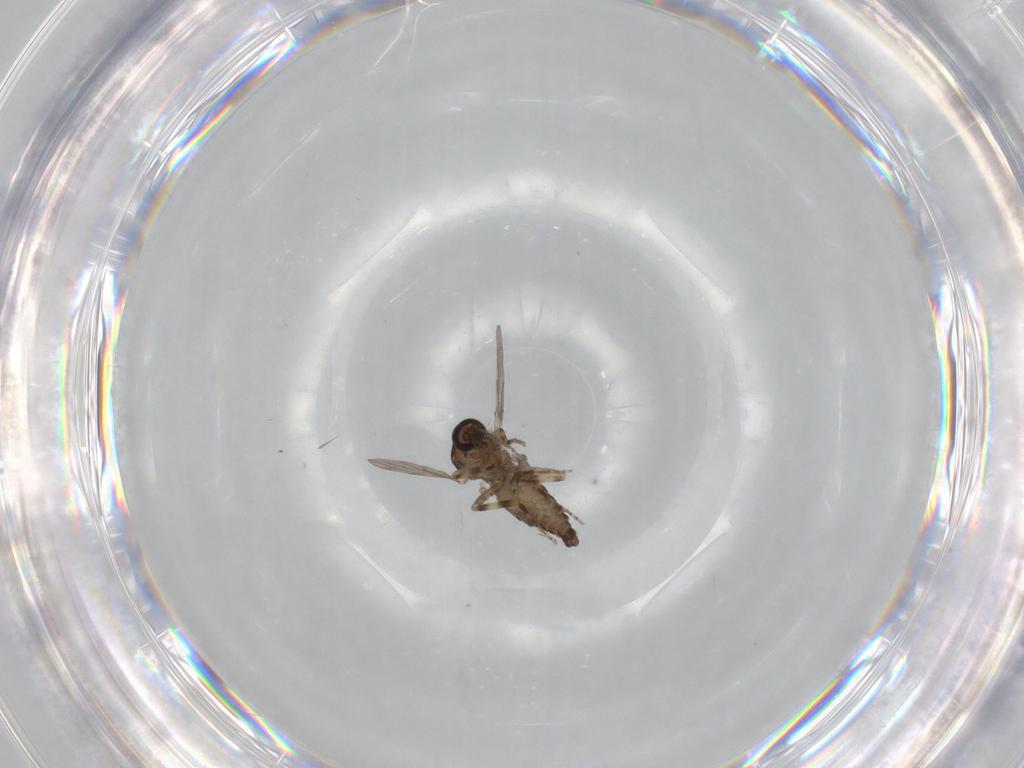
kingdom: Animalia
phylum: Arthropoda
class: Insecta
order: Diptera
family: Ceratopogonidae
